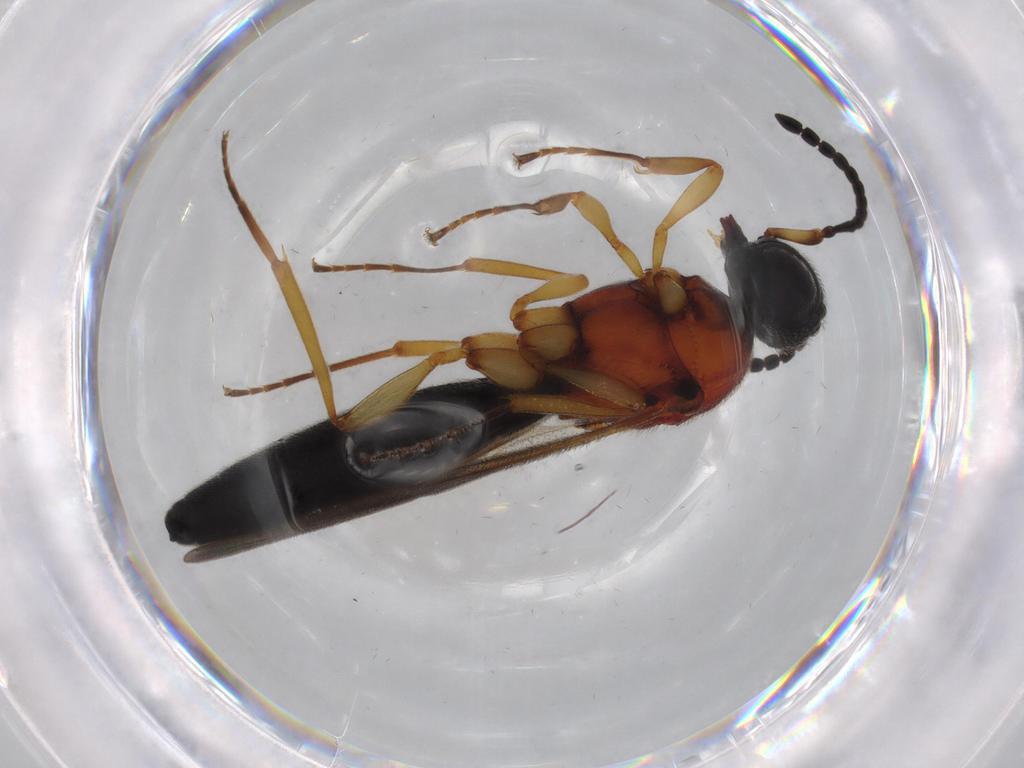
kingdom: Animalia
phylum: Arthropoda
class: Insecta
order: Hymenoptera
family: Scelionidae
